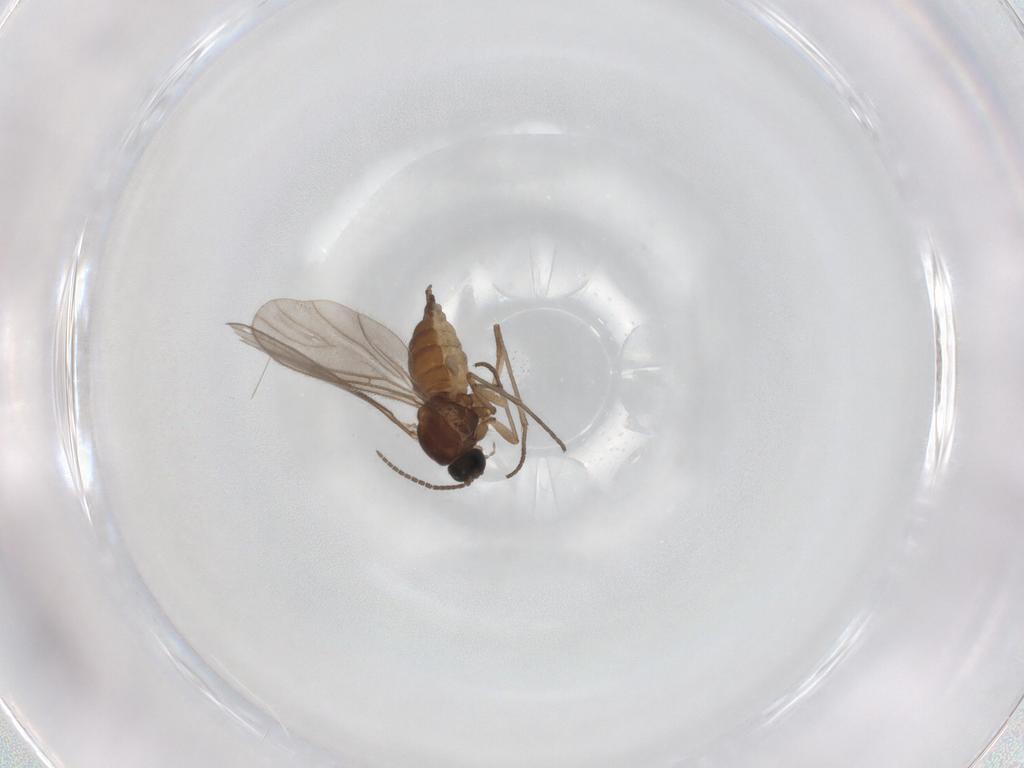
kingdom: Animalia
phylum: Arthropoda
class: Insecta
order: Diptera
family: Sciaridae
